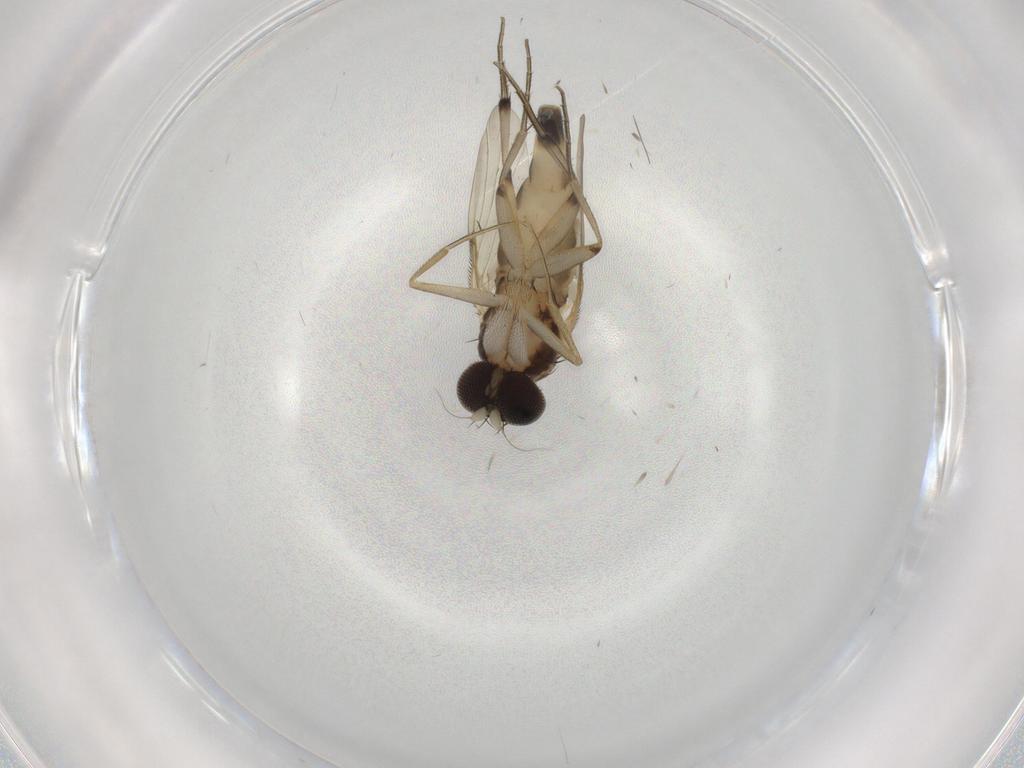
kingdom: Animalia
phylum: Arthropoda
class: Insecta
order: Diptera
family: Phoridae
